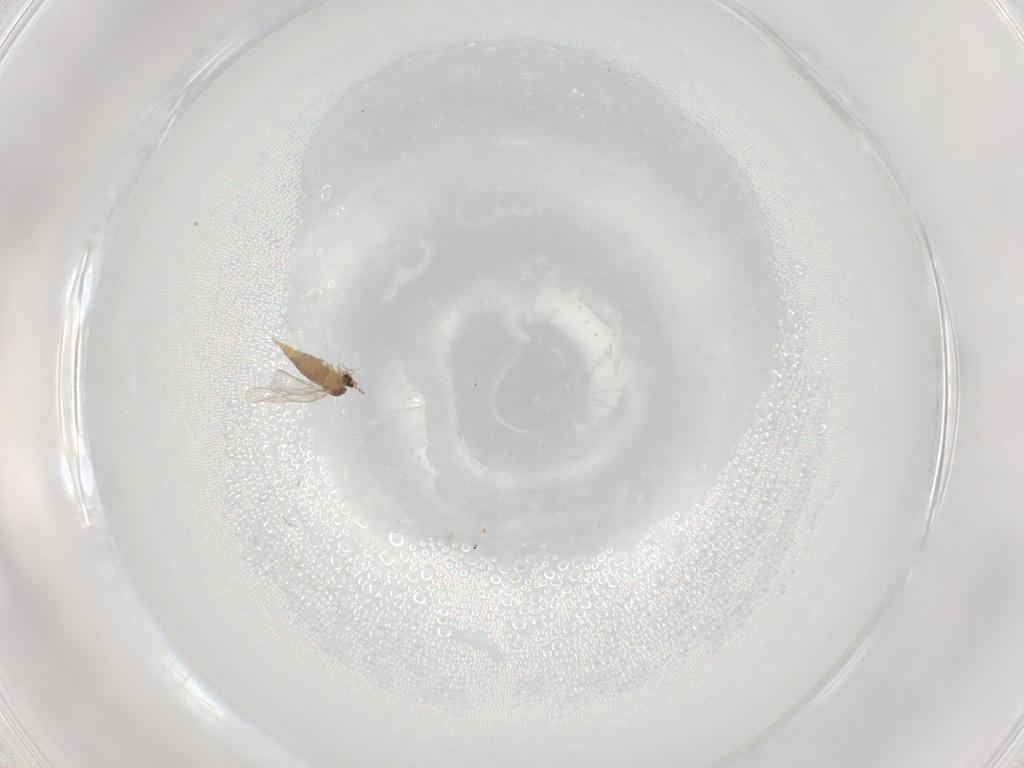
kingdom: Animalia
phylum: Arthropoda
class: Insecta
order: Diptera
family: Cecidomyiidae
